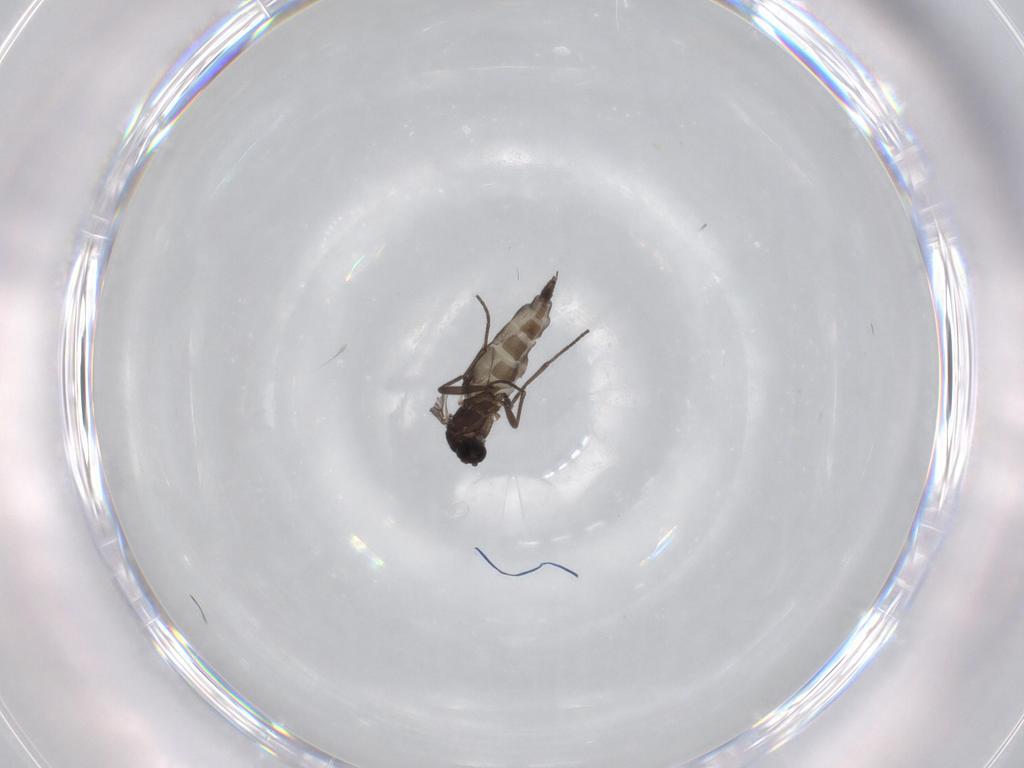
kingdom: Animalia
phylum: Arthropoda
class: Insecta
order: Diptera
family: Sciaridae
